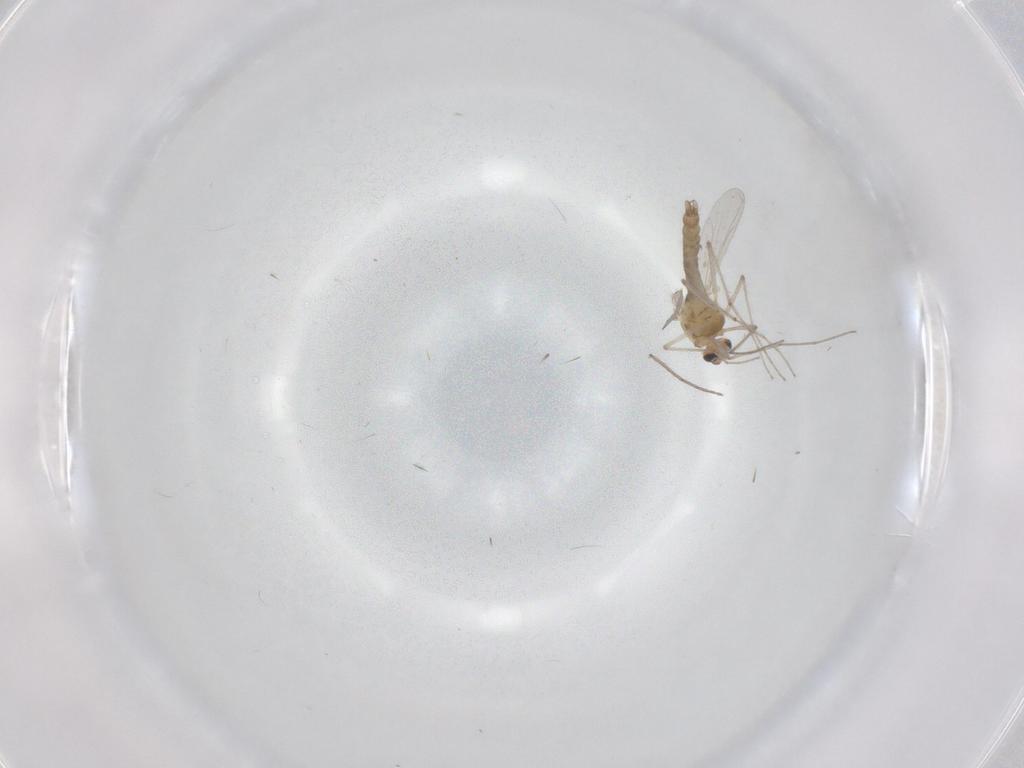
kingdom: Animalia
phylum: Arthropoda
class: Insecta
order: Diptera
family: Chironomidae
